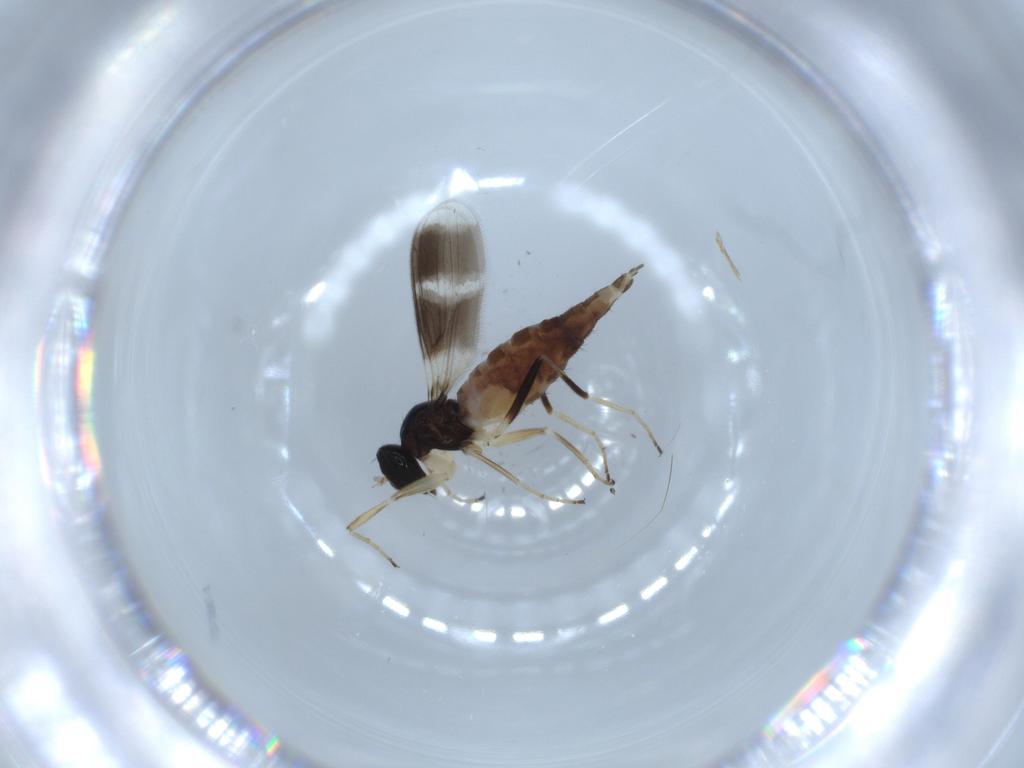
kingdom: Animalia
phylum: Arthropoda
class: Insecta
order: Diptera
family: Hybotidae
